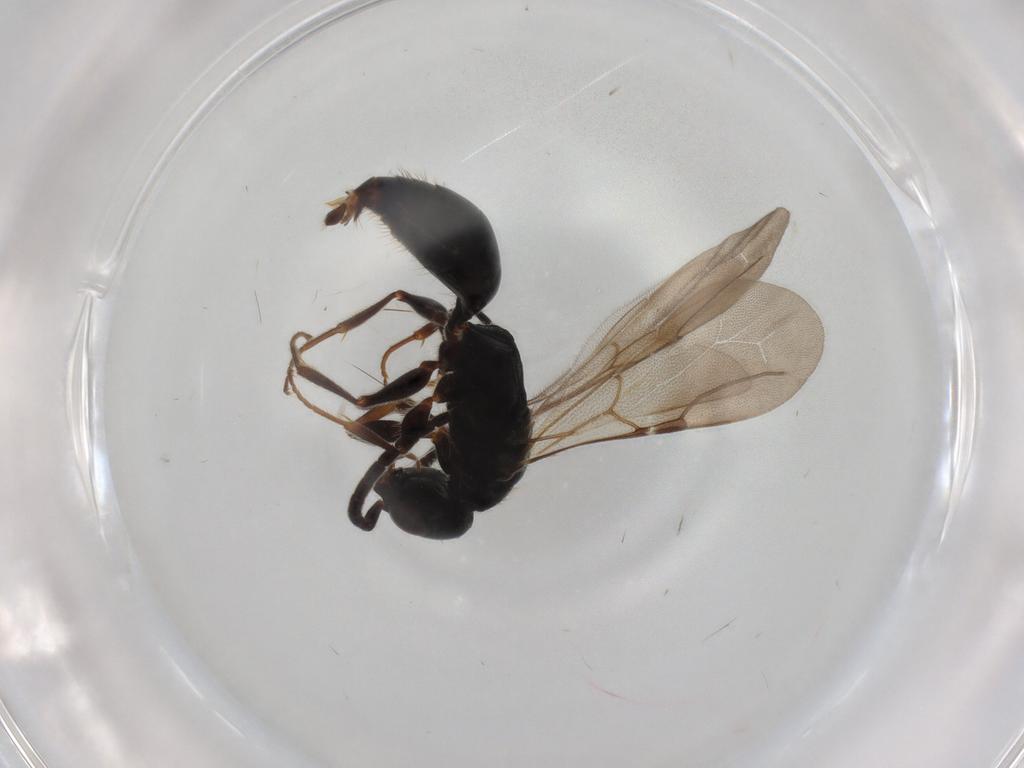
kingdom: Animalia
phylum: Arthropoda
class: Insecta
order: Hymenoptera
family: Bethylidae
